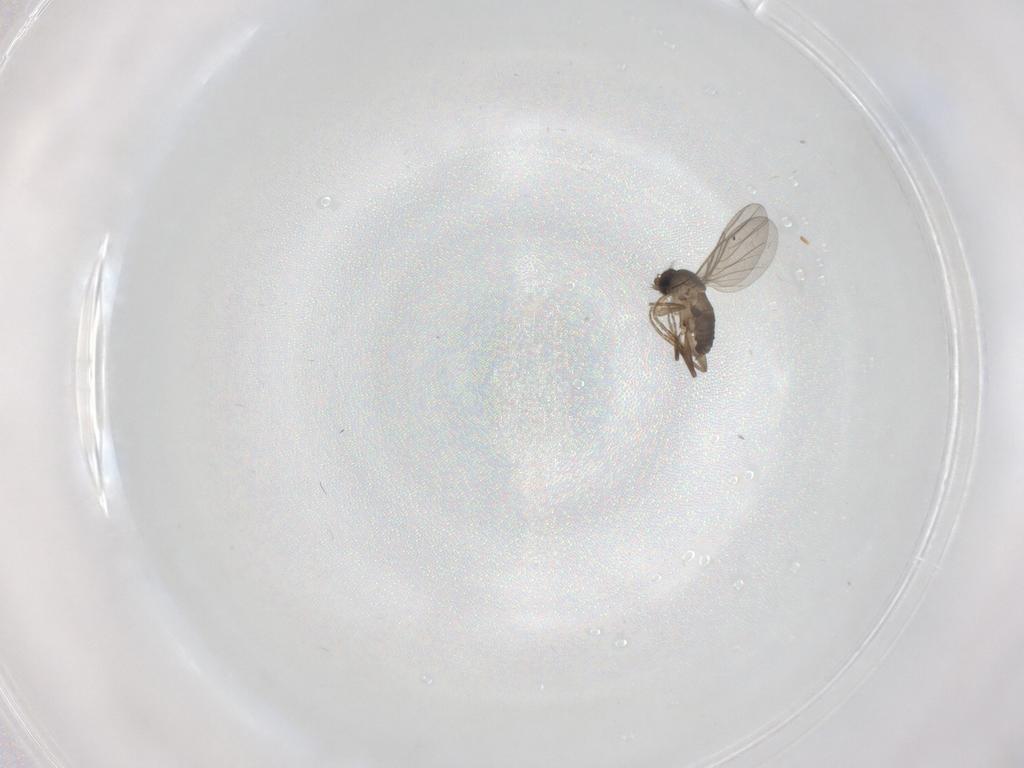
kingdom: Animalia
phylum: Arthropoda
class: Insecta
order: Diptera
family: Phoridae
